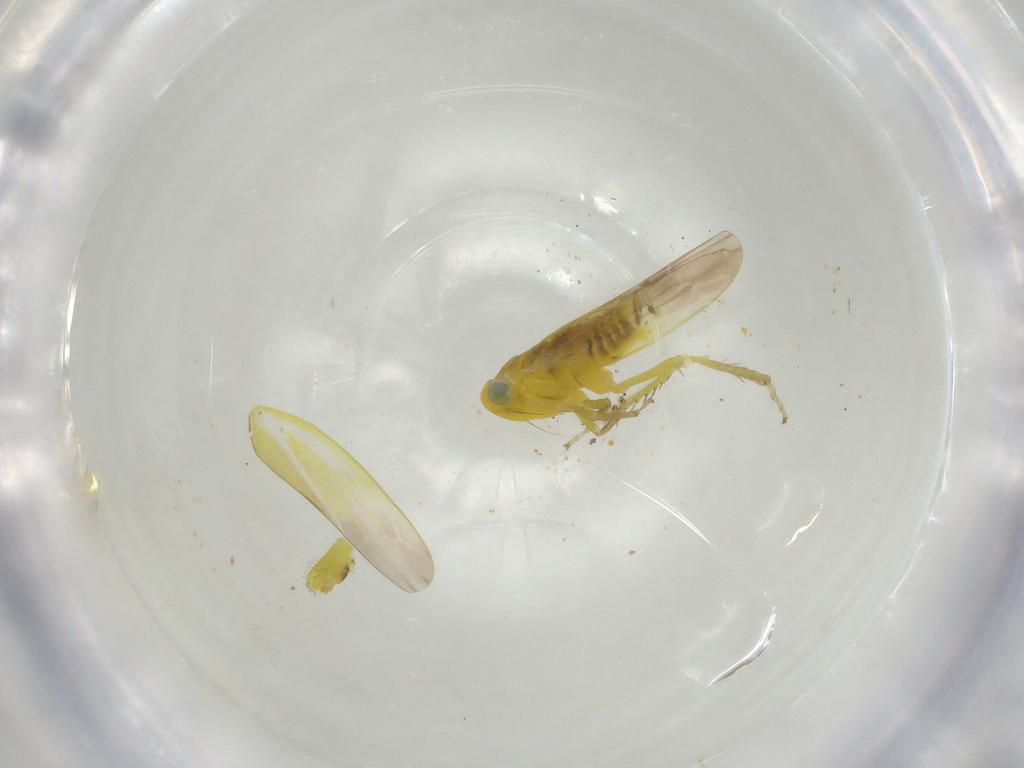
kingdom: Animalia
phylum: Arthropoda
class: Insecta
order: Hemiptera
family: Cicadellidae
